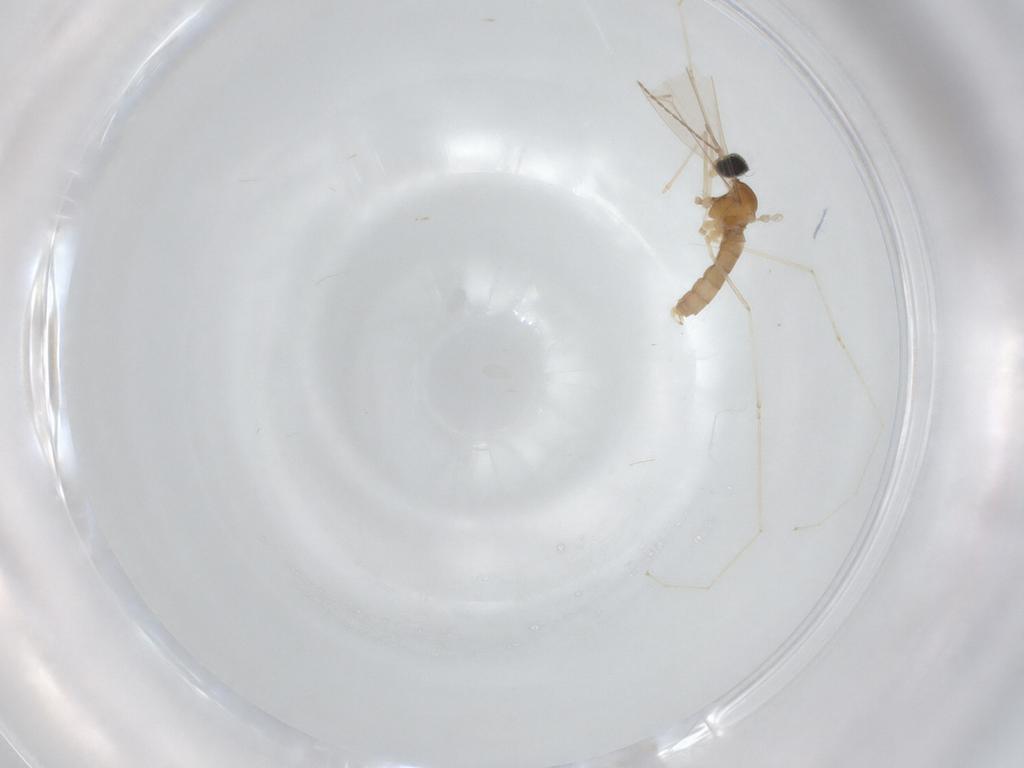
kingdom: Animalia
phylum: Arthropoda
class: Insecta
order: Diptera
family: Cecidomyiidae
